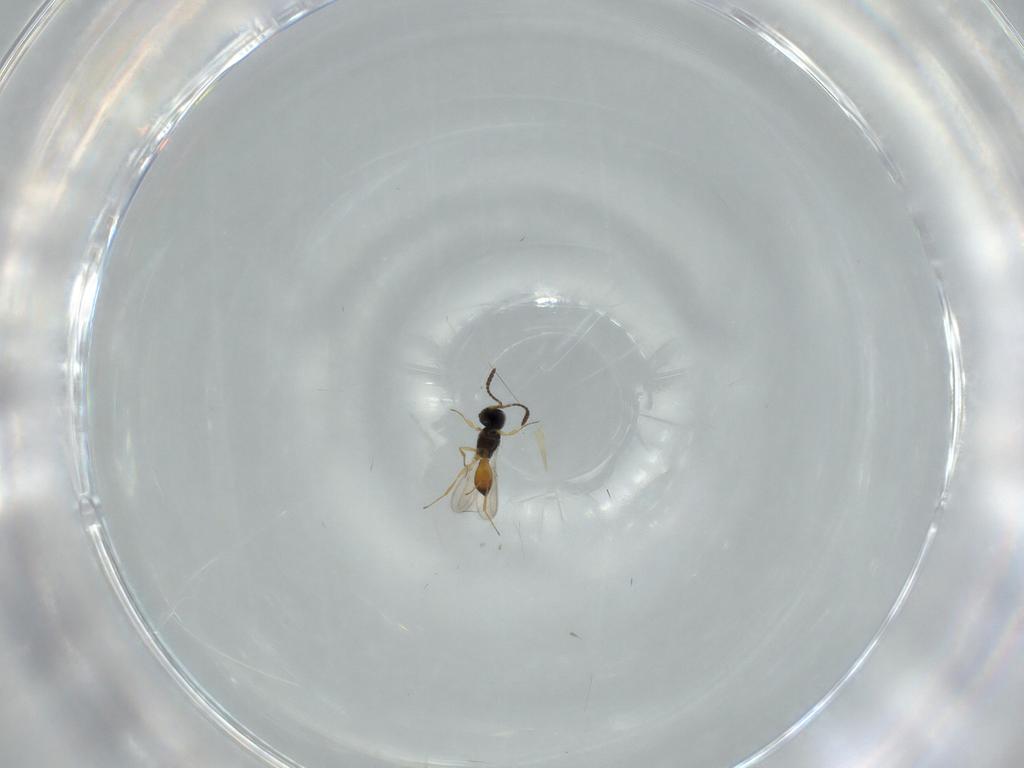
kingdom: Animalia
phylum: Arthropoda
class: Insecta
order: Hymenoptera
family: Scelionidae
